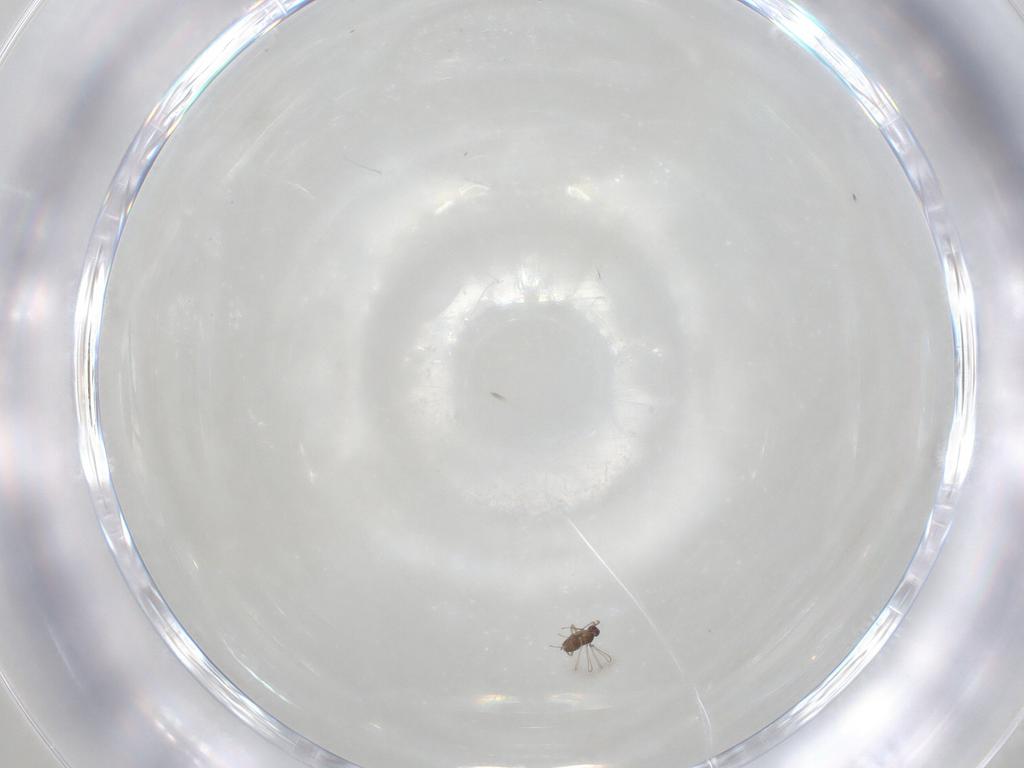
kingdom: Animalia
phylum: Arthropoda
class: Insecta
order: Hymenoptera
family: Mymaridae
